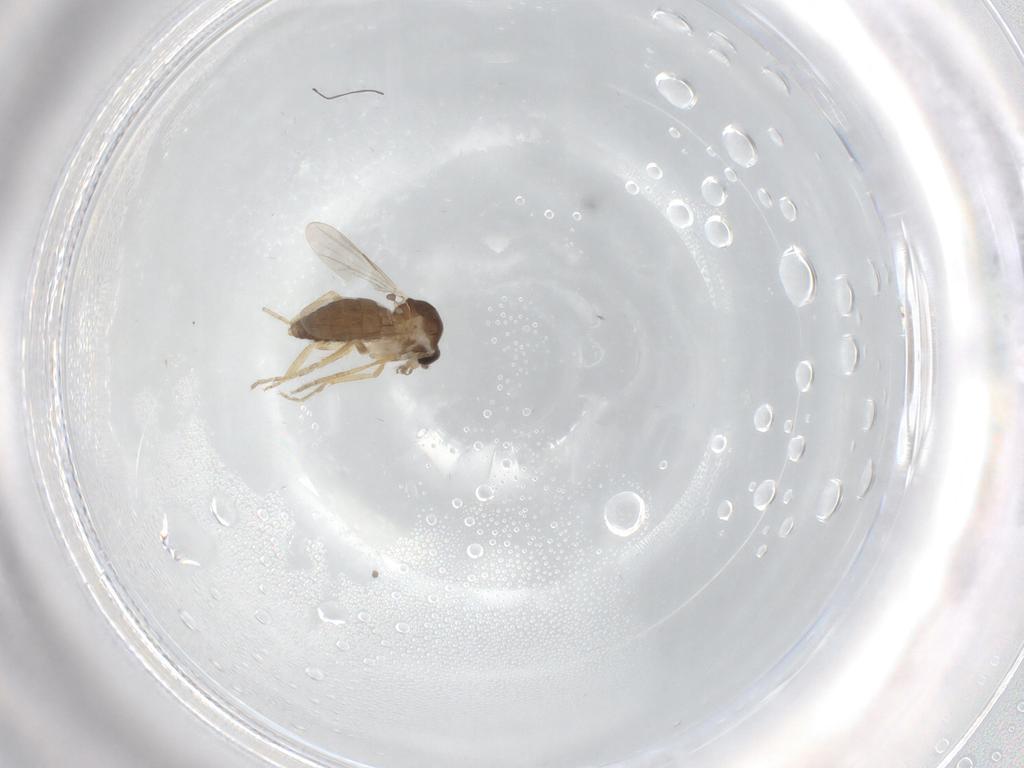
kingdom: Animalia
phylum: Arthropoda
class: Insecta
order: Diptera
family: Ceratopogonidae
